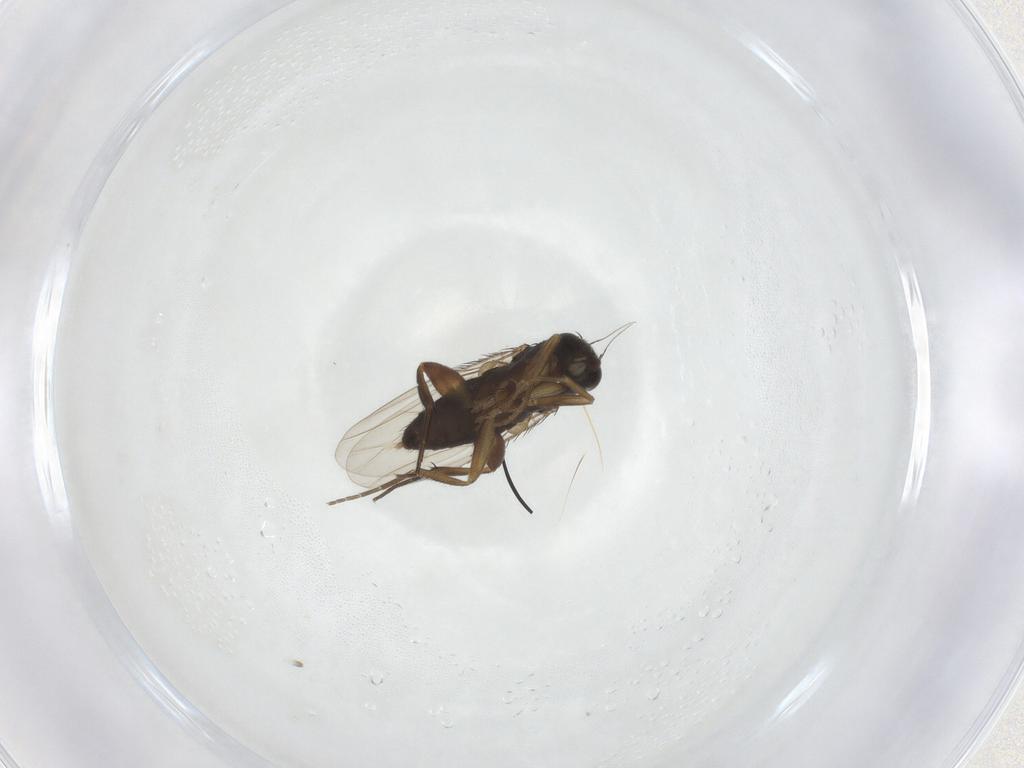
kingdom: Animalia
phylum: Arthropoda
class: Insecta
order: Diptera
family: Phoridae
